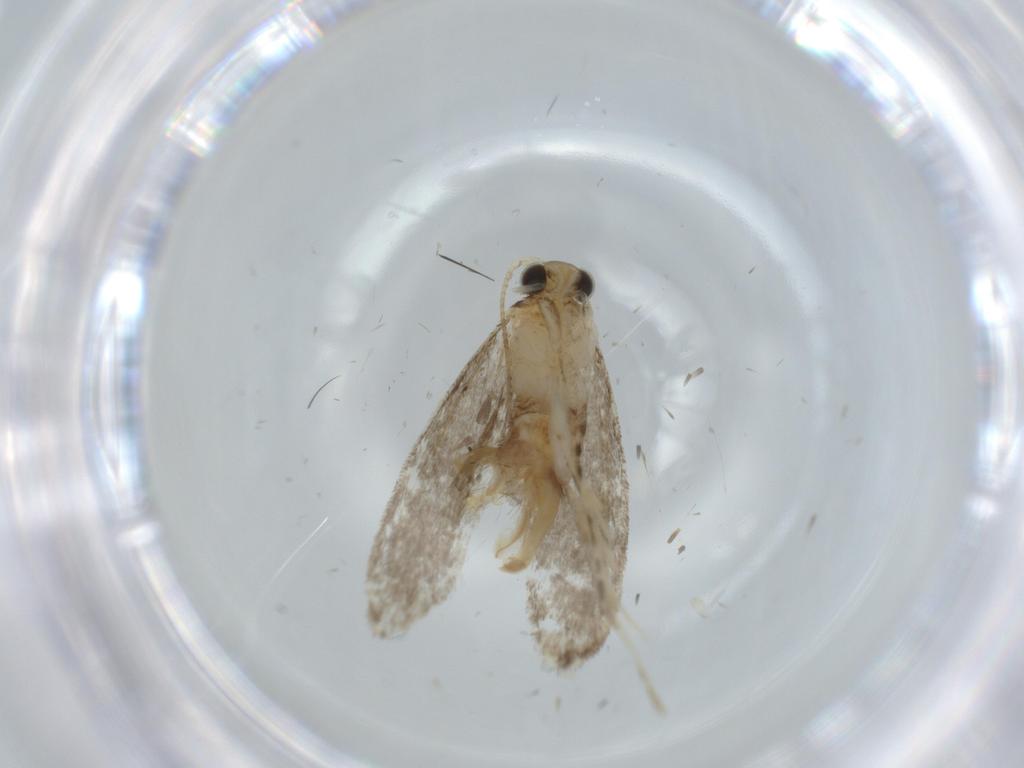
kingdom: Animalia
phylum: Arthropoda
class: Insecta
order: Lepidoptera
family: Tineidae
